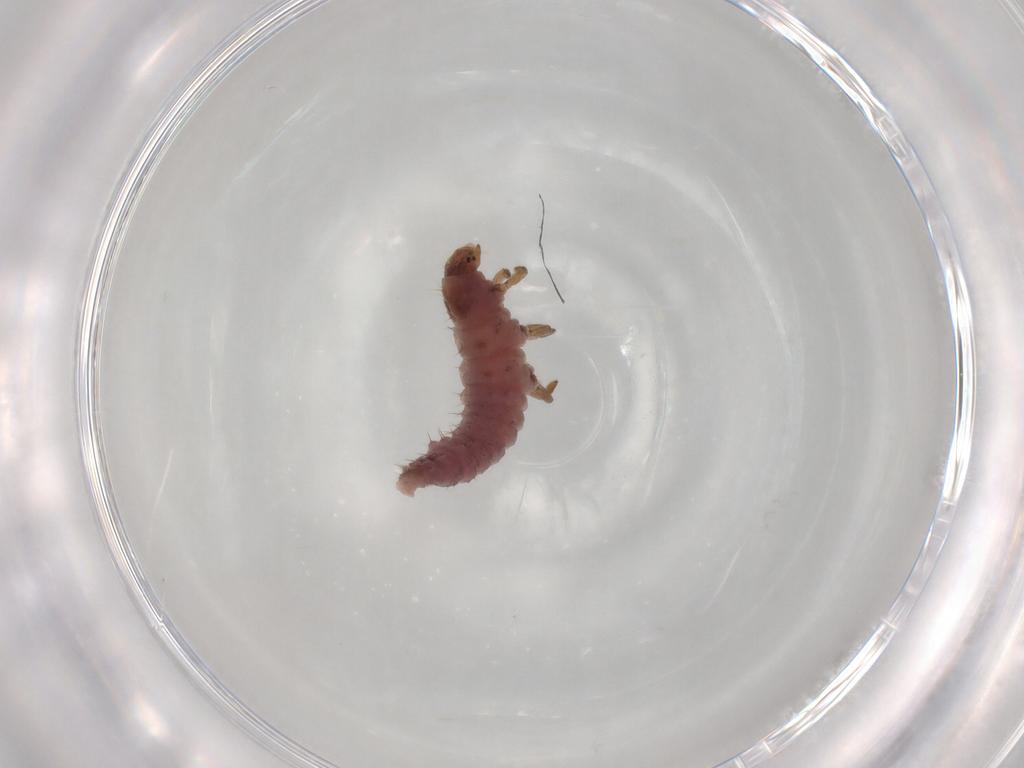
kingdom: Animalia
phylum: Arthropoda
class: Insecta
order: Coleoptera
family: Coccinellidae
